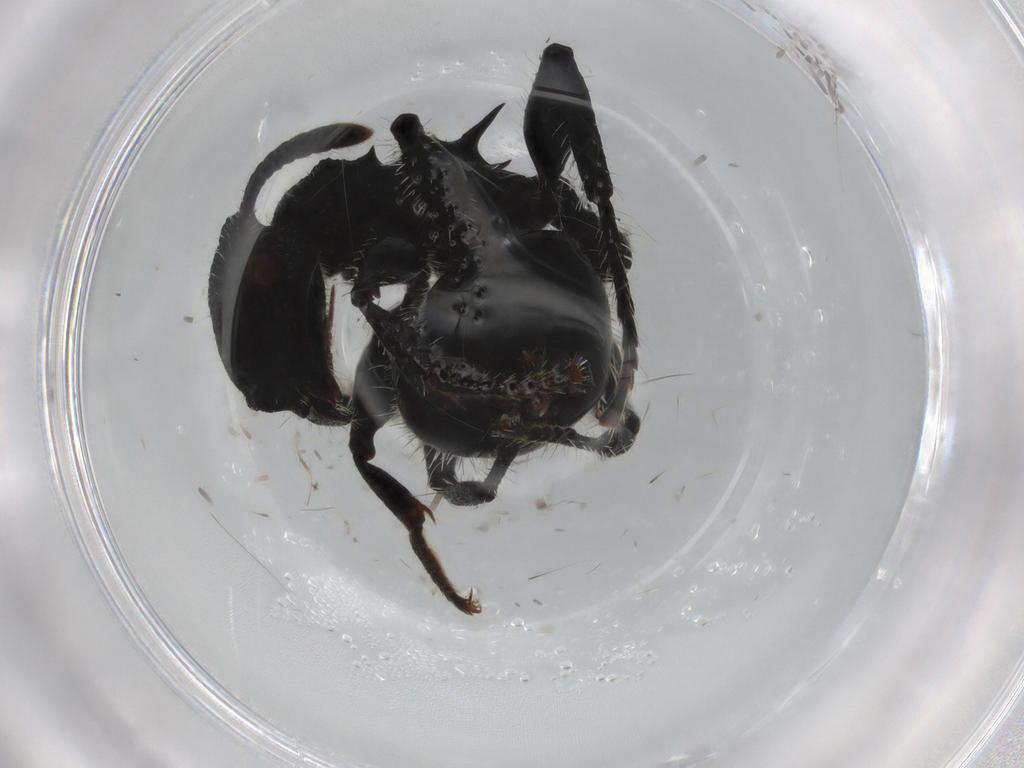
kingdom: Animalia
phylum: Arthropoda
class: Insecta
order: Hymenoptera
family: Formicidae
